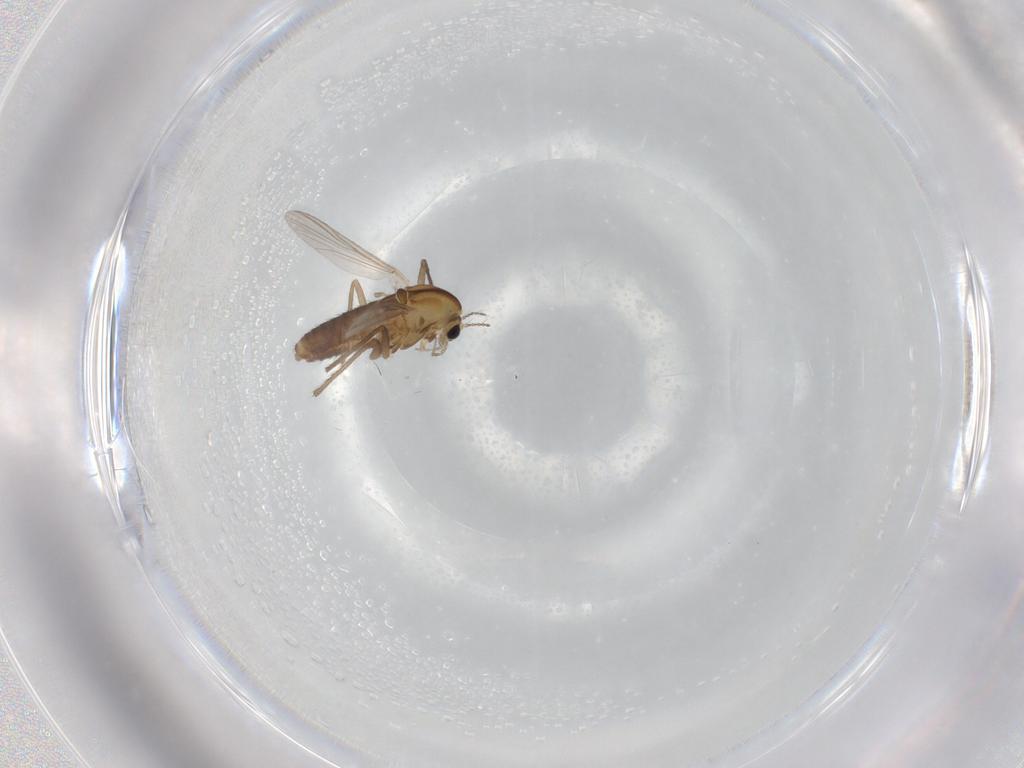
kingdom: Animalia
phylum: Arthropoda
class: Insecta
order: Diptera
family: Chironomidae
